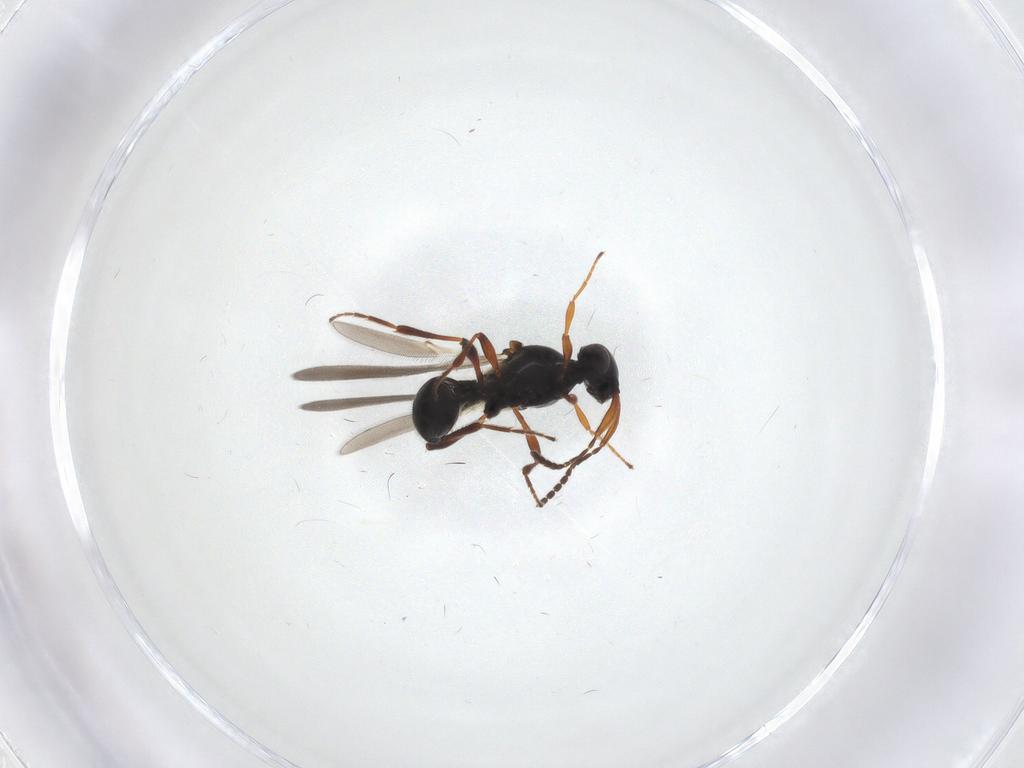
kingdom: Animalia
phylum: Arthropoda
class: Insecta
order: Hymenoptera
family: Platygastridae
